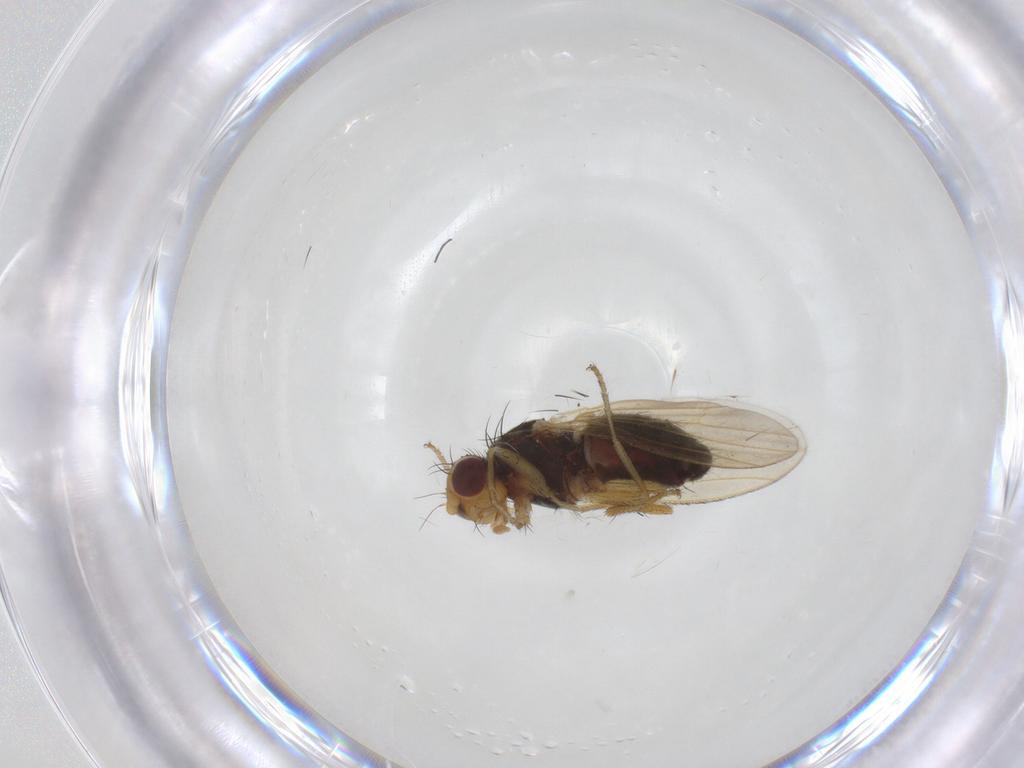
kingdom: Animalia
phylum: Arthropoda
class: Insecta
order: Diptera
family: Heleomyzidae
